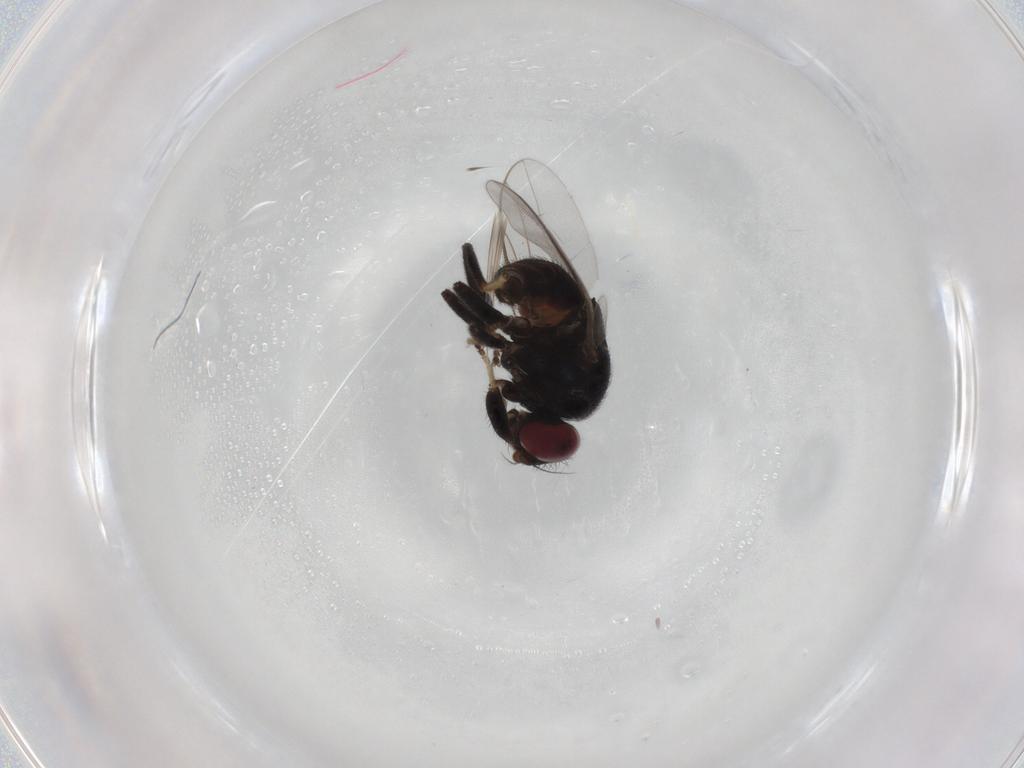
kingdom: Animalia
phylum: Arthropoda
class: Insecta
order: Diptera
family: Chloropidae
